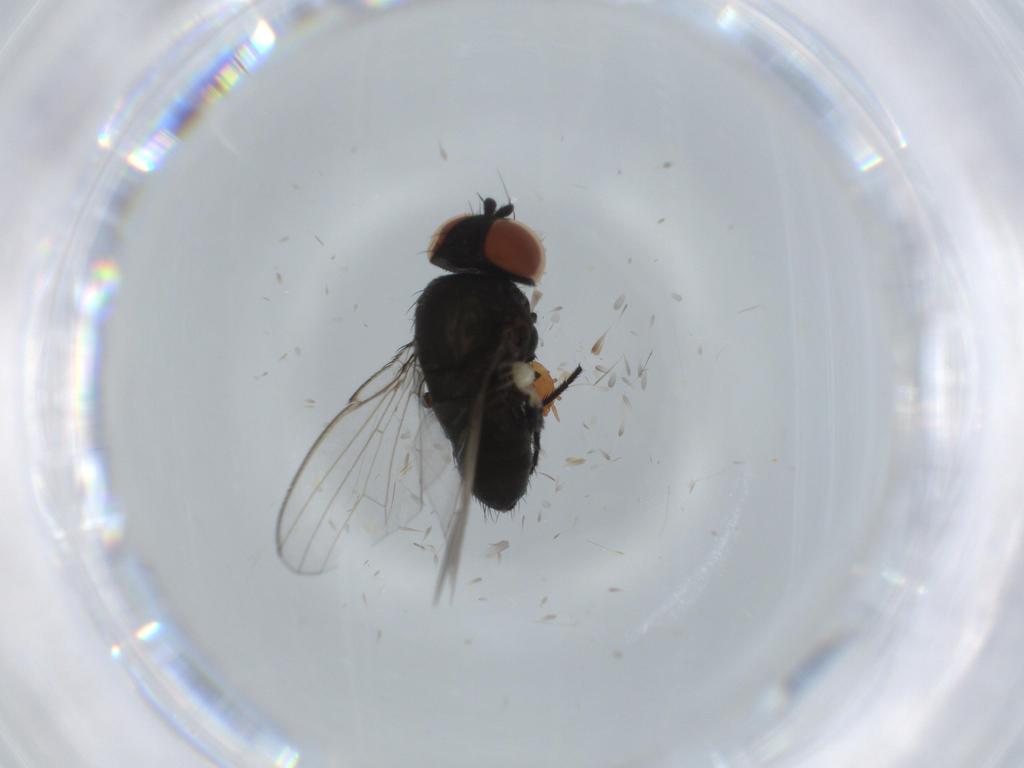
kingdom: Animalia
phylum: Arthropoda
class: Insecta
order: Diptera
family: Milichiidae
